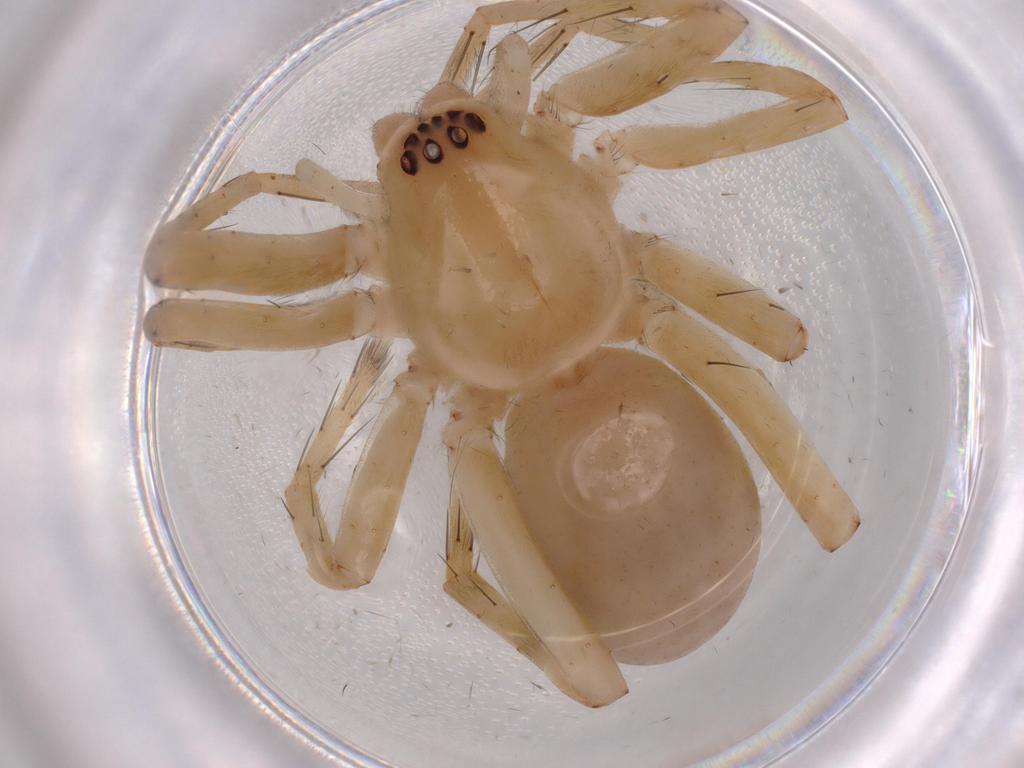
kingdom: Animalia
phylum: Arthropoda
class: Arachnida
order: Araneae
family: Anyphaenidae
